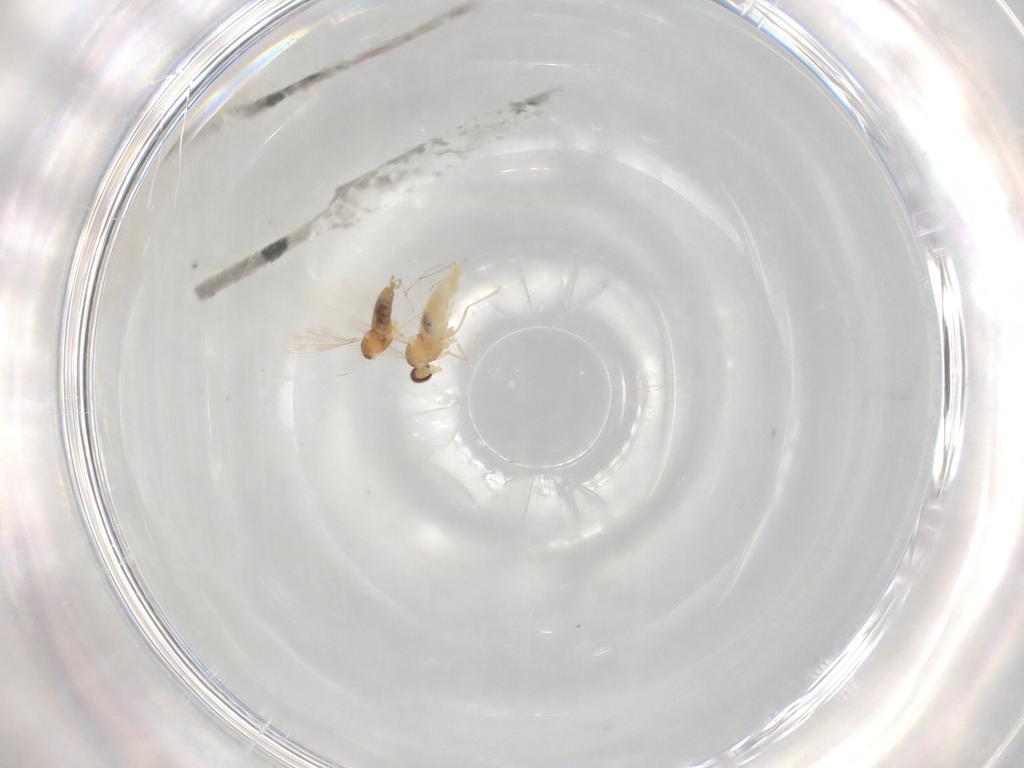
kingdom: Animalia
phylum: Arthropoda
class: Insecta
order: Diptera
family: Cecidomyiidae
